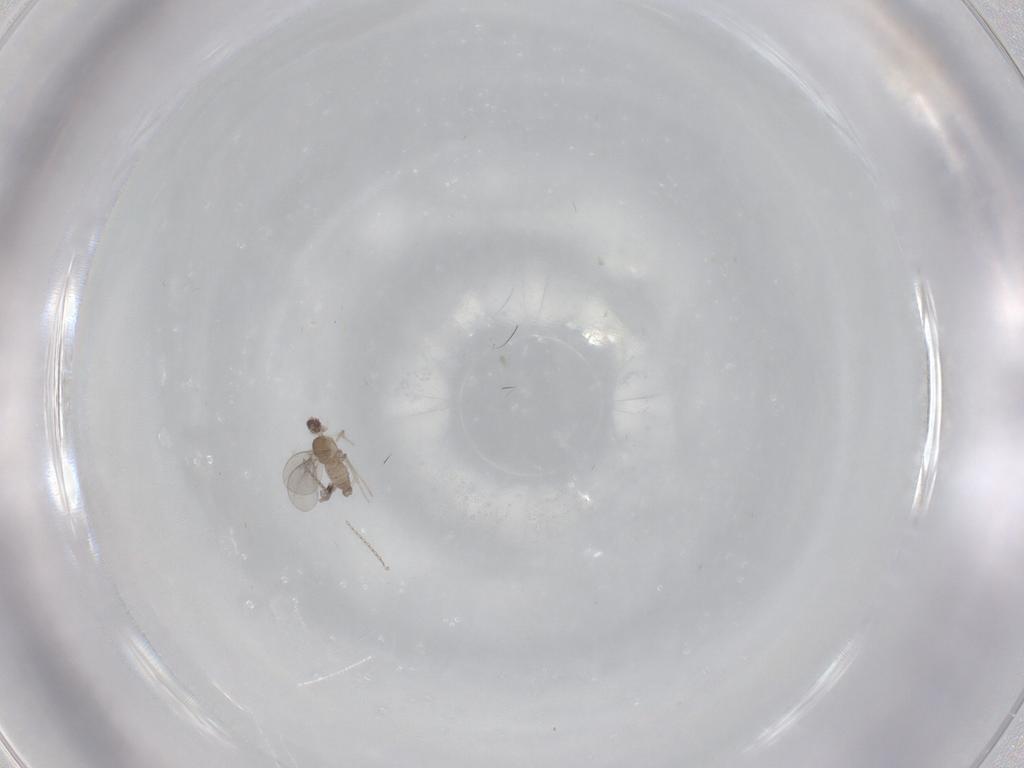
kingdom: Animalia
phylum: Arthropoda
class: Insecta
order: Diptera
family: Cecidomyiidae
